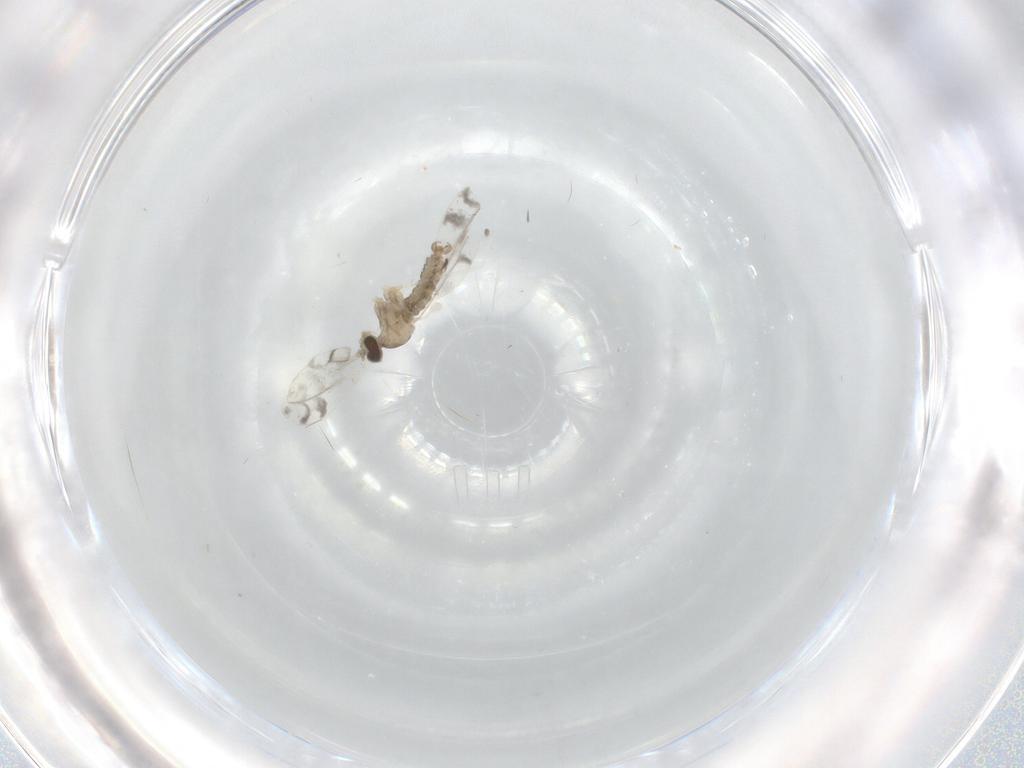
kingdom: Animalia
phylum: Arthropoda
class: Insecta
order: Diptera
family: Cecidomyiidae
